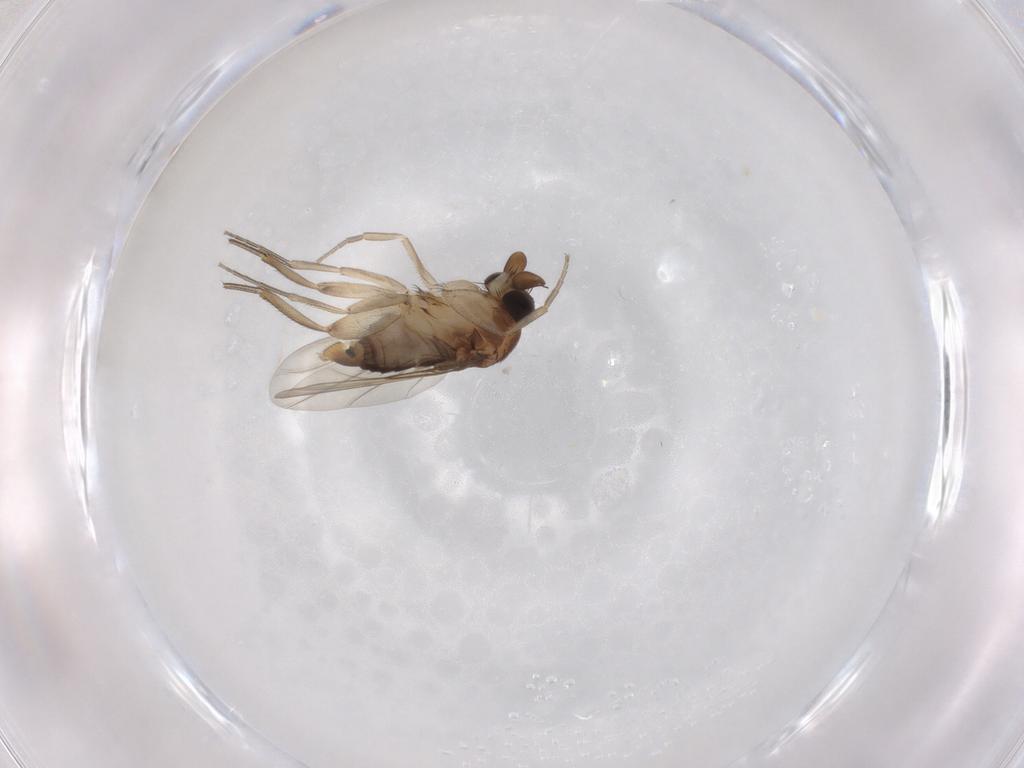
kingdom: Animalia
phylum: Arthropoda
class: Insecta
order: Diptera
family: Phoridae
